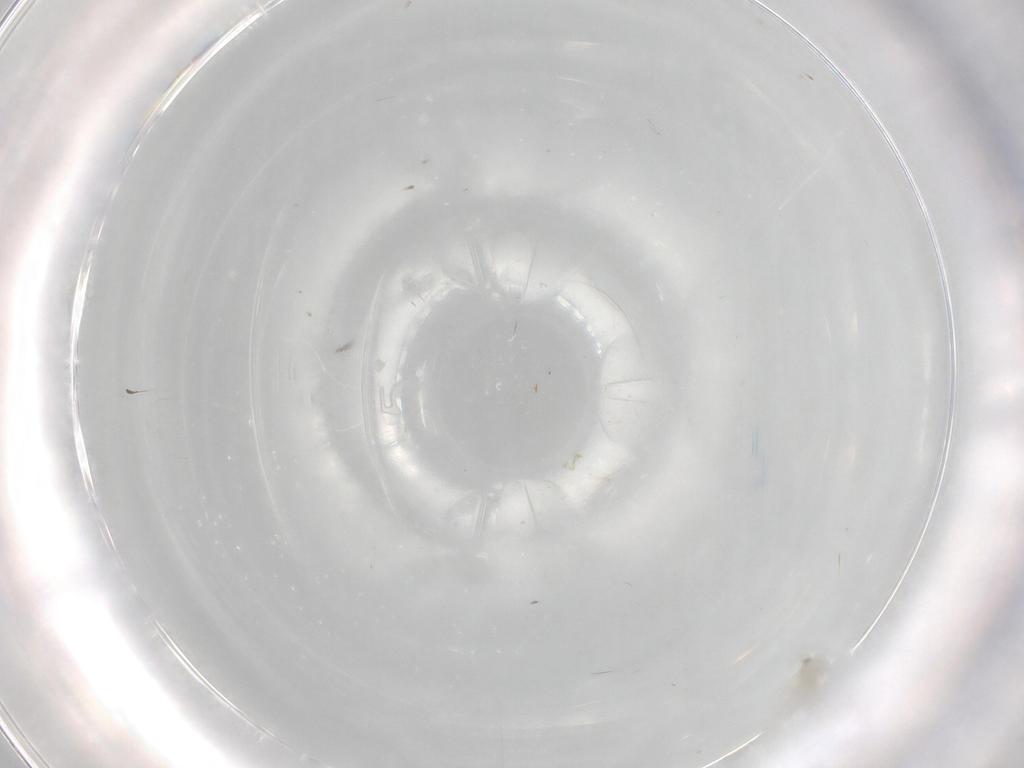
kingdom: Animalia
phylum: Arthropoda
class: Insecta
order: Diptera
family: Cecidomyiidae
